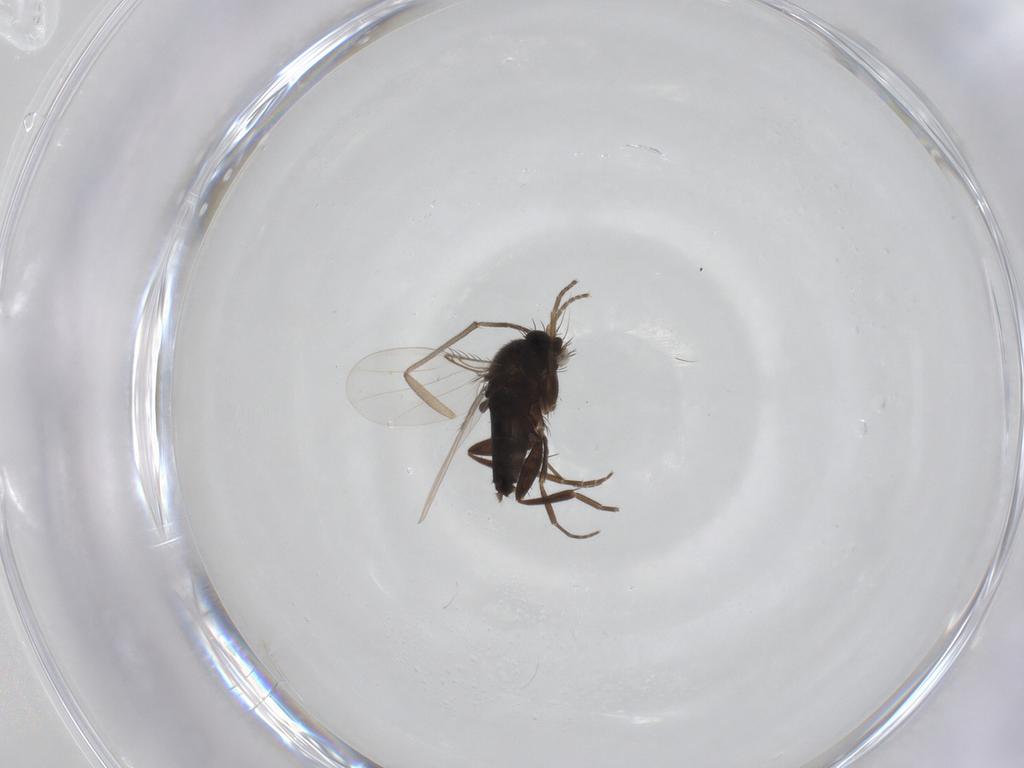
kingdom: Animalia
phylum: Arthropoda
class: Insecta
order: Diptera
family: Phoridae
